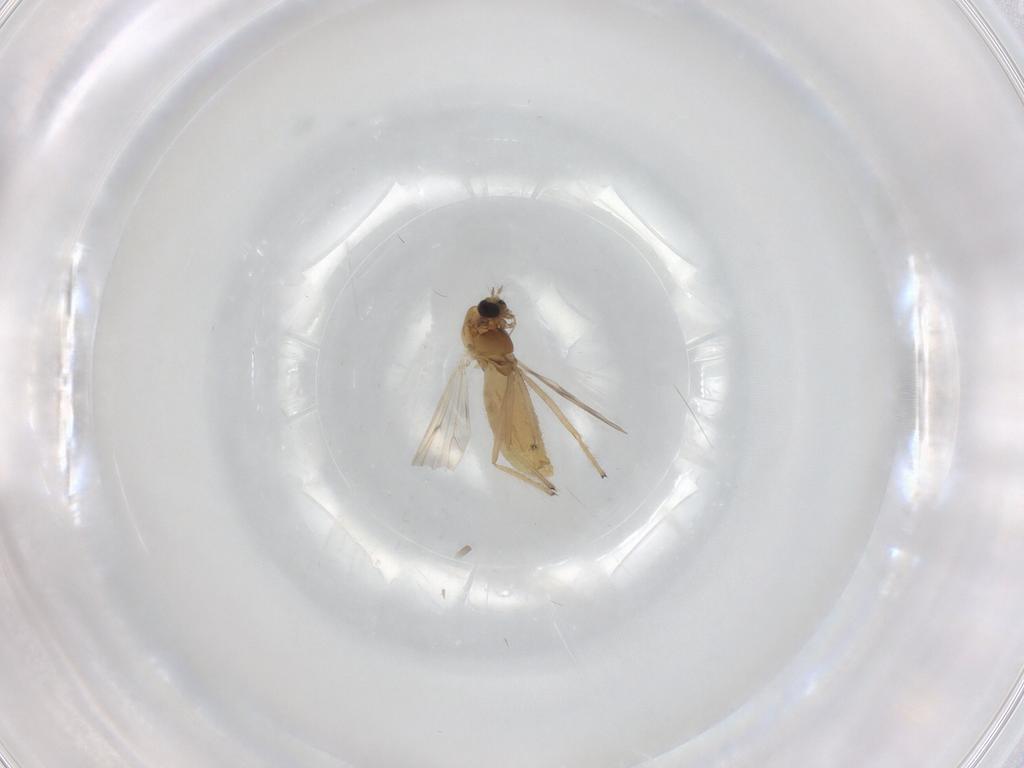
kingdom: Animalia
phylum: Arthropoda
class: Insecta
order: Diptera
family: Chironomidae
